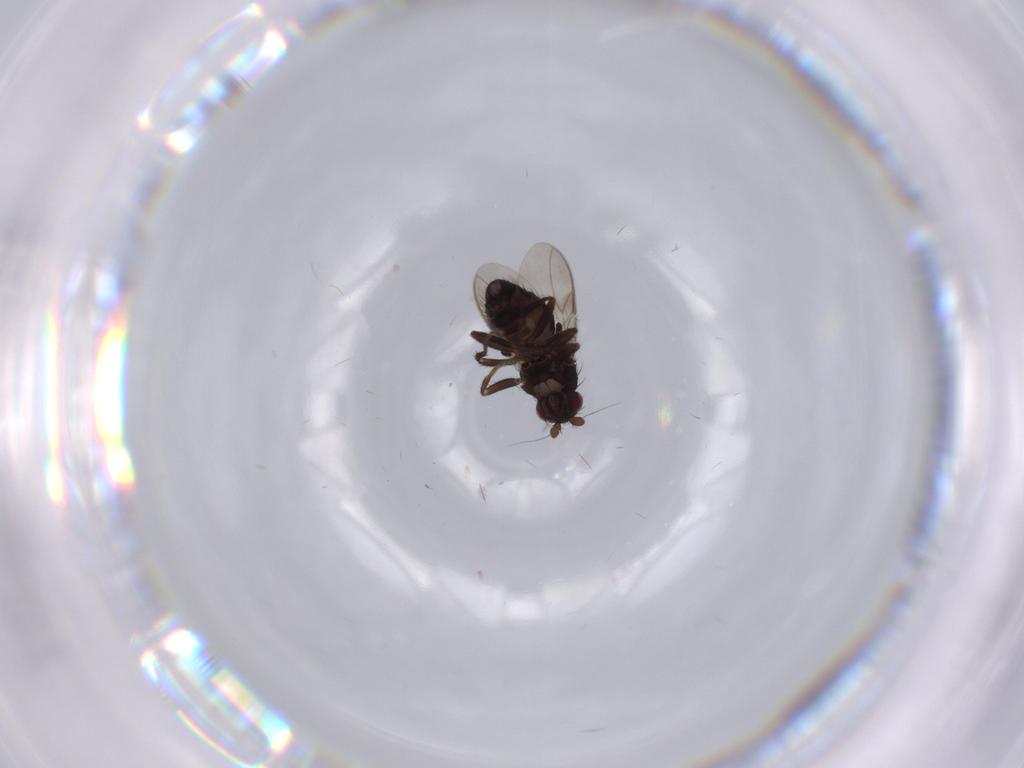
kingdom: Animalia
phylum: Arthropoda
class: Insecta
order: Diptera
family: Sphaeroceridae
